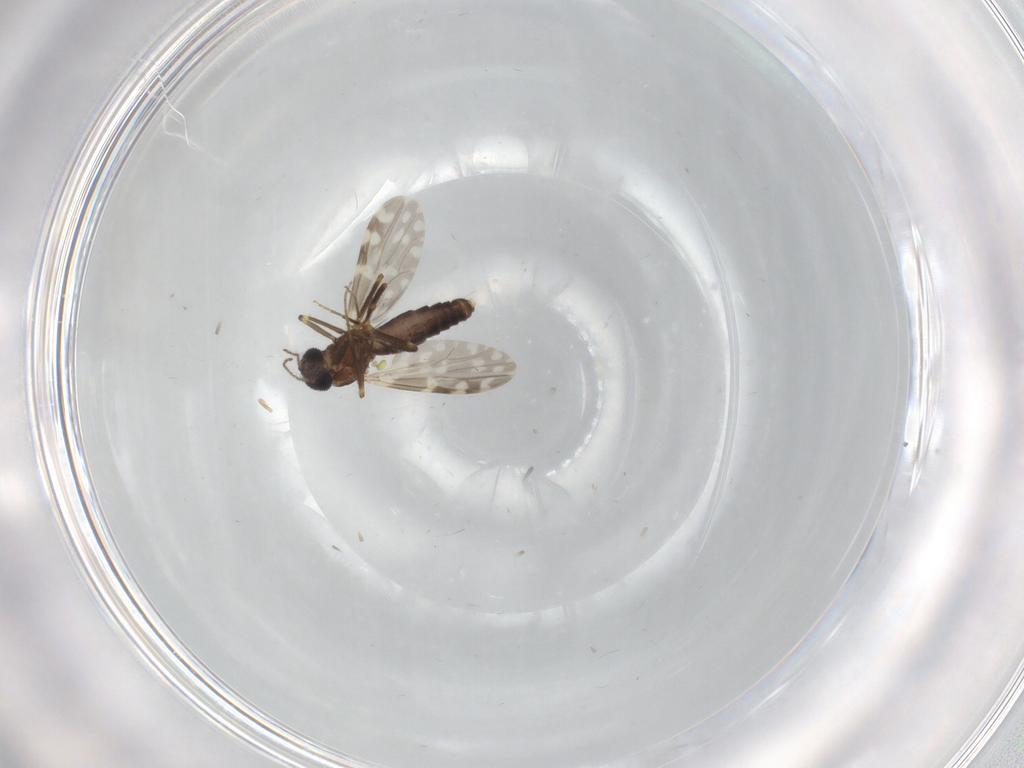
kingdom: Animalia
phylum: Arthropoda
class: Insecta
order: Diptera
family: Ceratopogonidae
